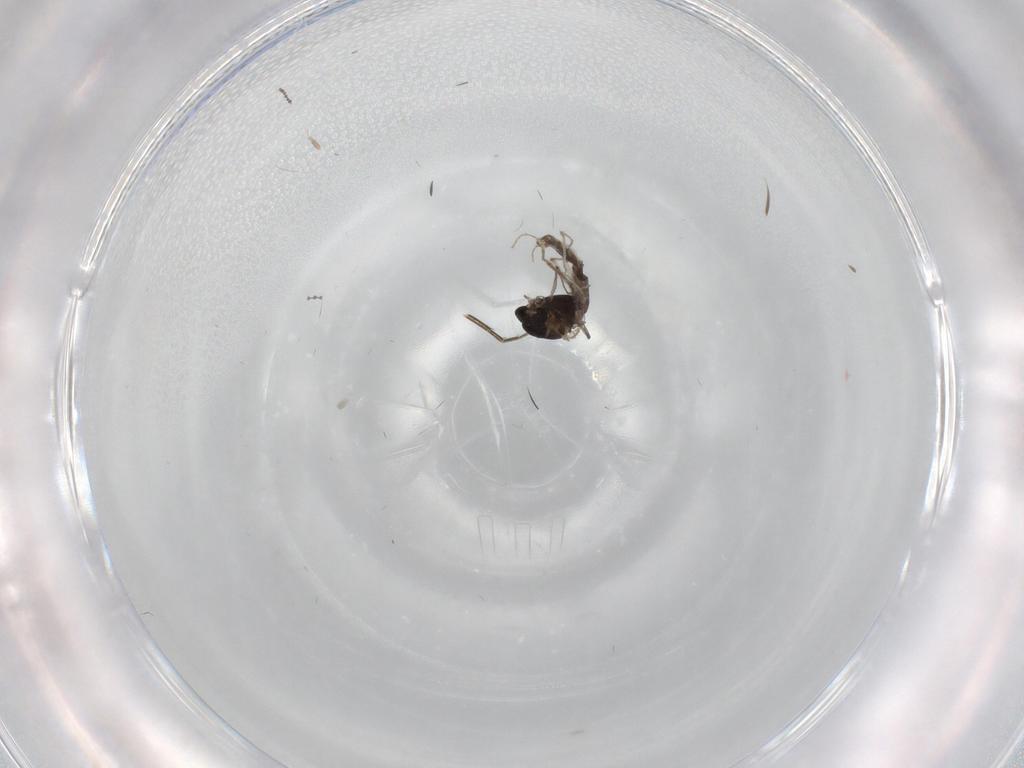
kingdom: Animalia
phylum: Arthropoda
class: Insecta
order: Diptera
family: Phoridae
